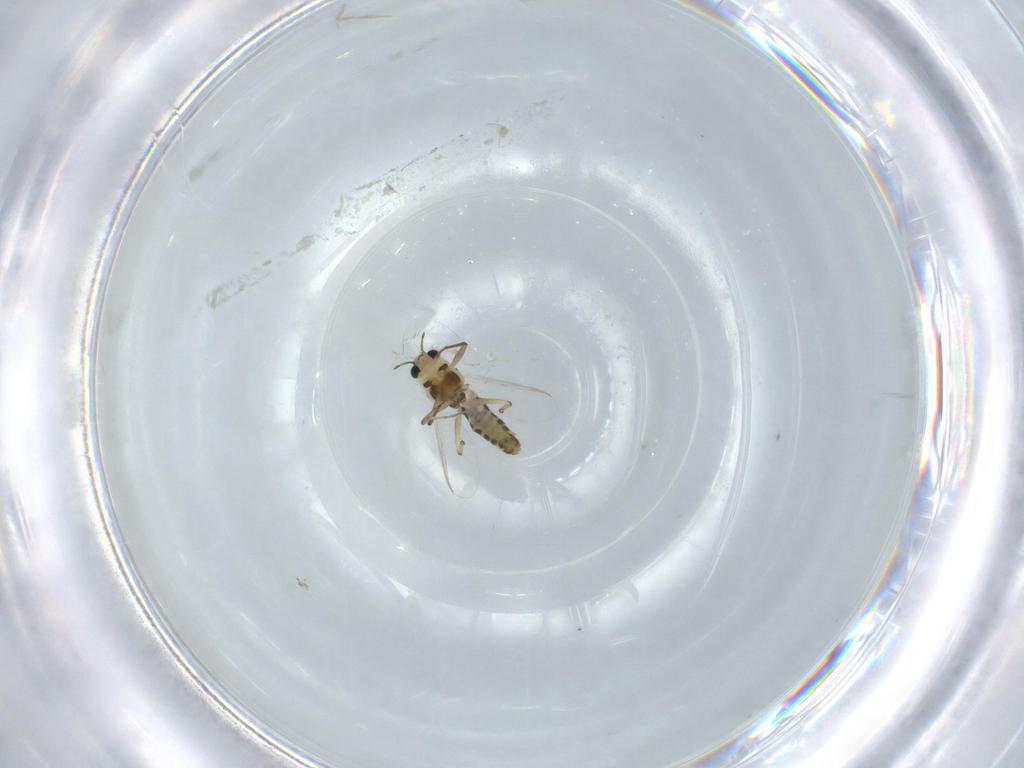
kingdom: Animalia
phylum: Arthropoda
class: Insecta
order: Diptera
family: Chironomidae
